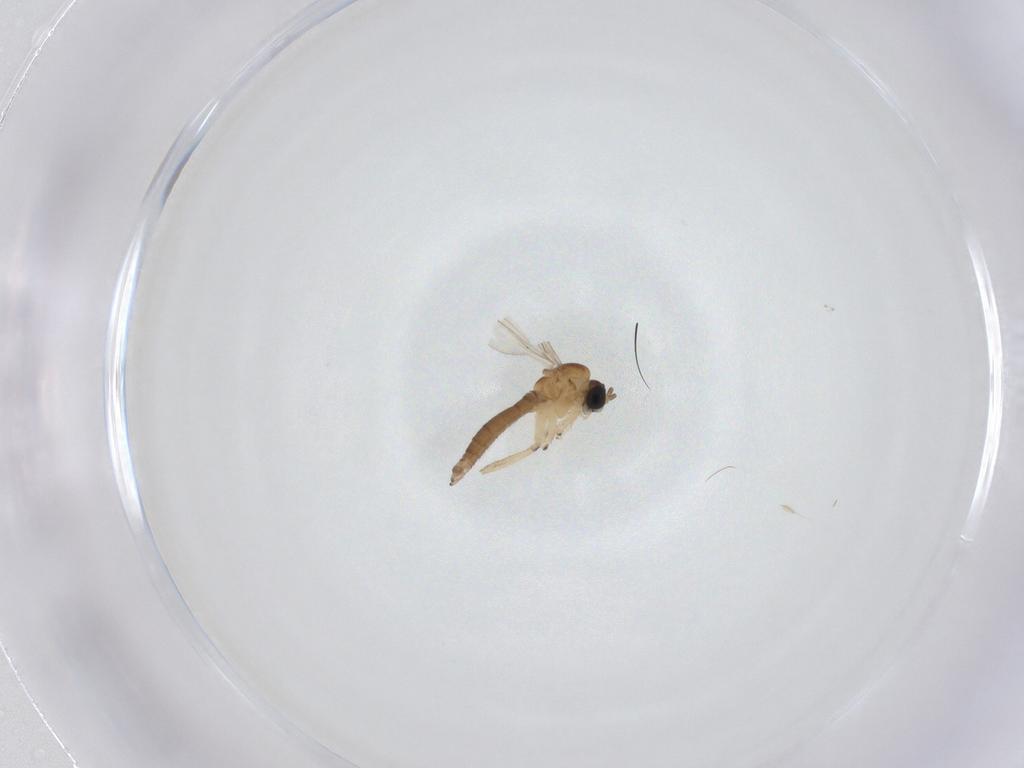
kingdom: Animalia
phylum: Arthropoda
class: Insecta
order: Diptera
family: Sciaridae
